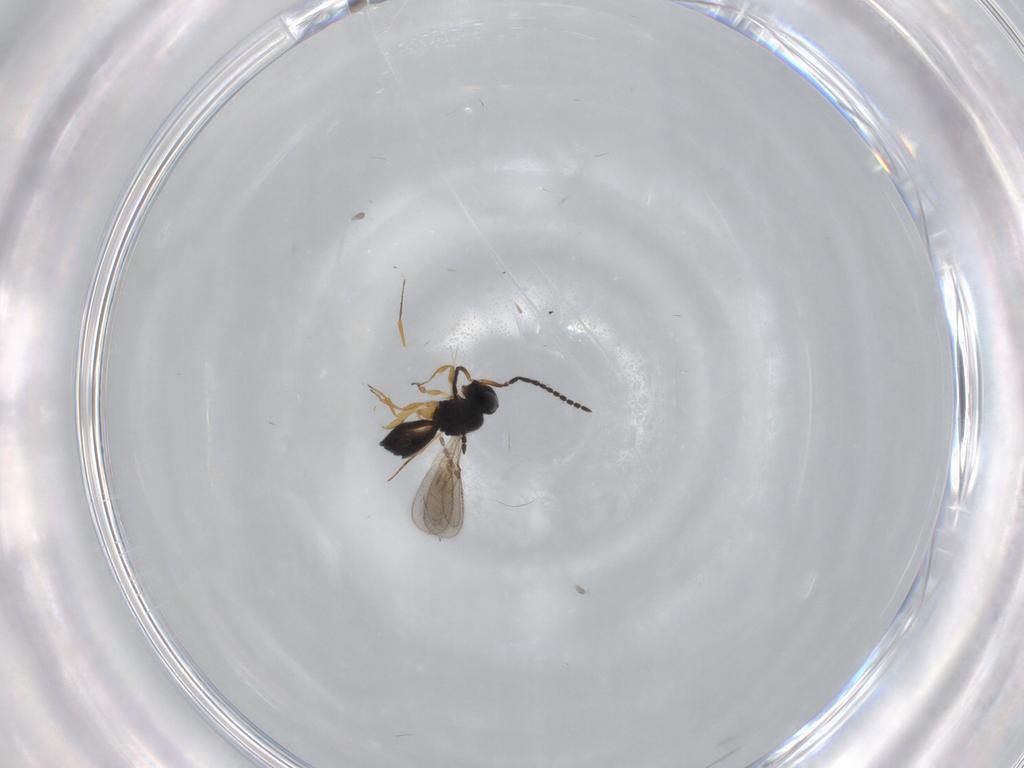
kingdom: Animalia
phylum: Arthropoda
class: Insecta
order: Hymenoptera
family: Scelionidae
